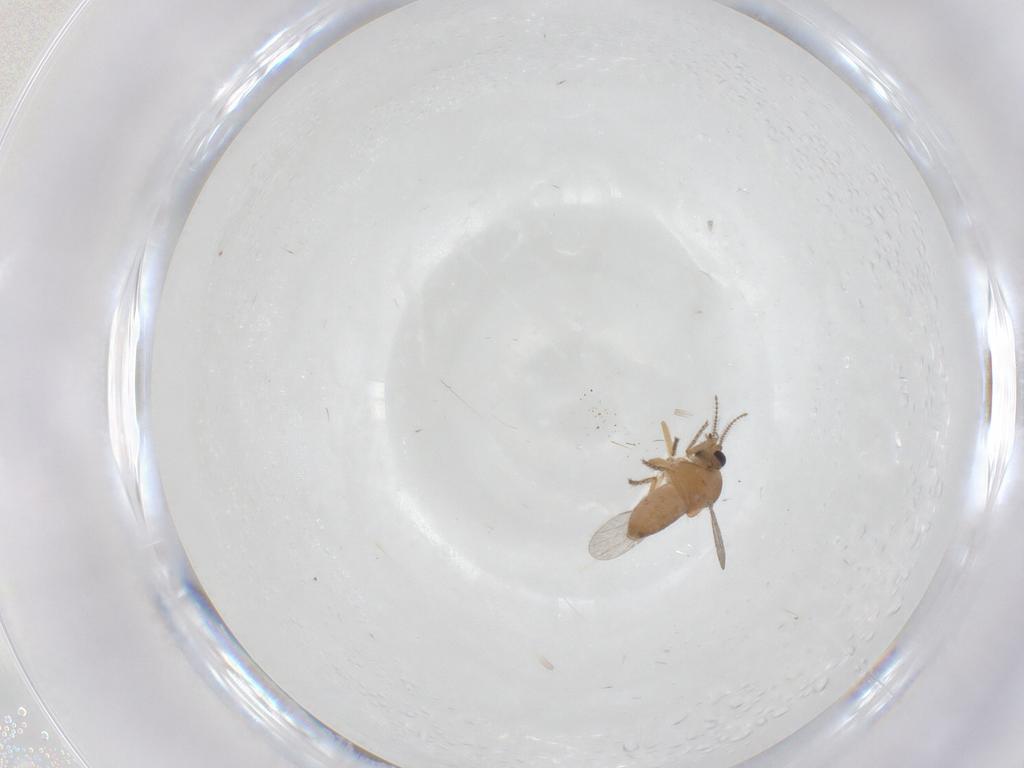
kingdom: Animalia
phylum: Arthropoda
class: Insecta
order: Diptera
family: Ceratopogonidae
